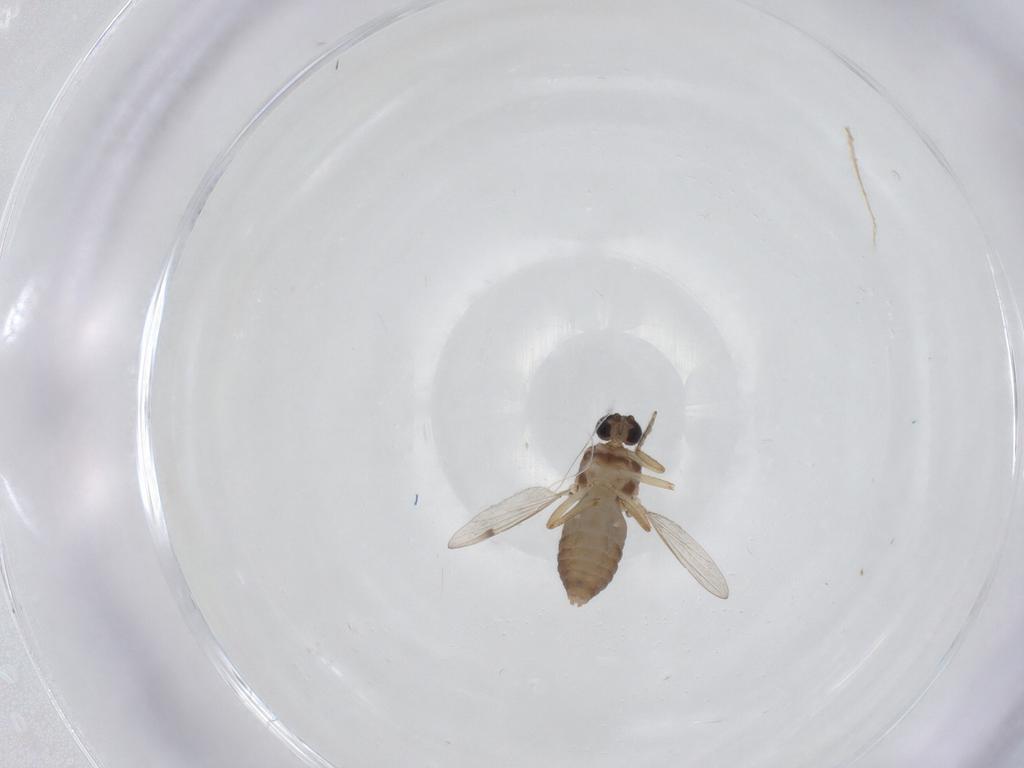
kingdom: Animalia
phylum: Arthropoda
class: Insecta
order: Diptera
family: Ceratopogonidae
